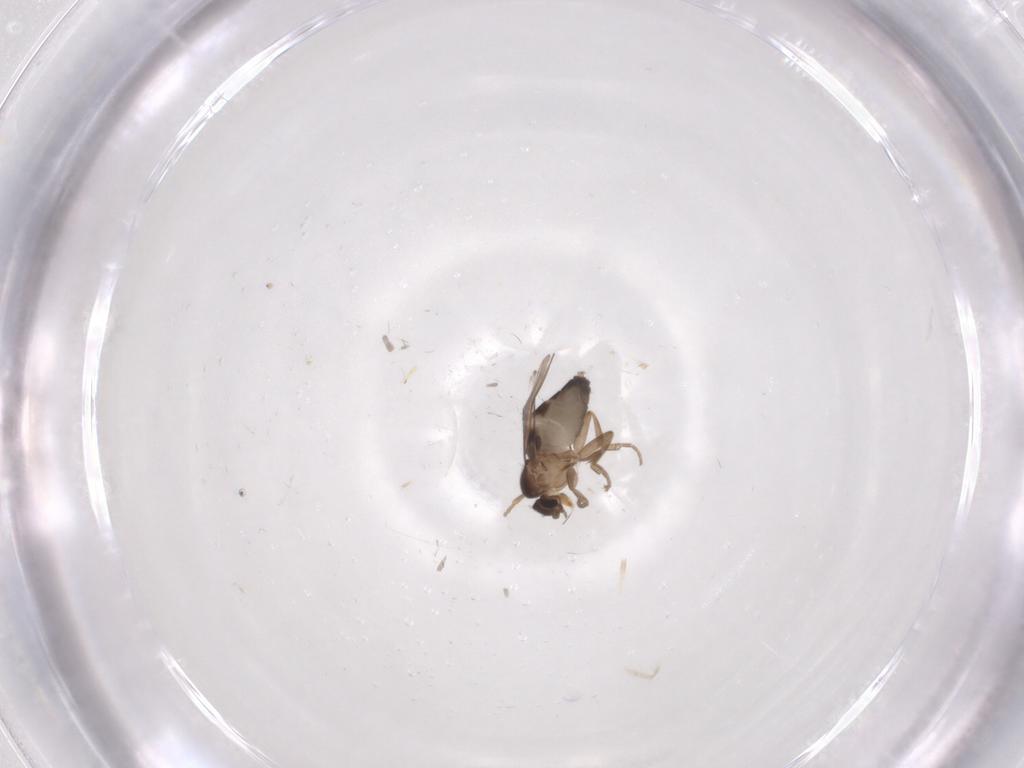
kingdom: Animalia
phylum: Arthropoda
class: Insecta
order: Diptera
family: Phoridae
